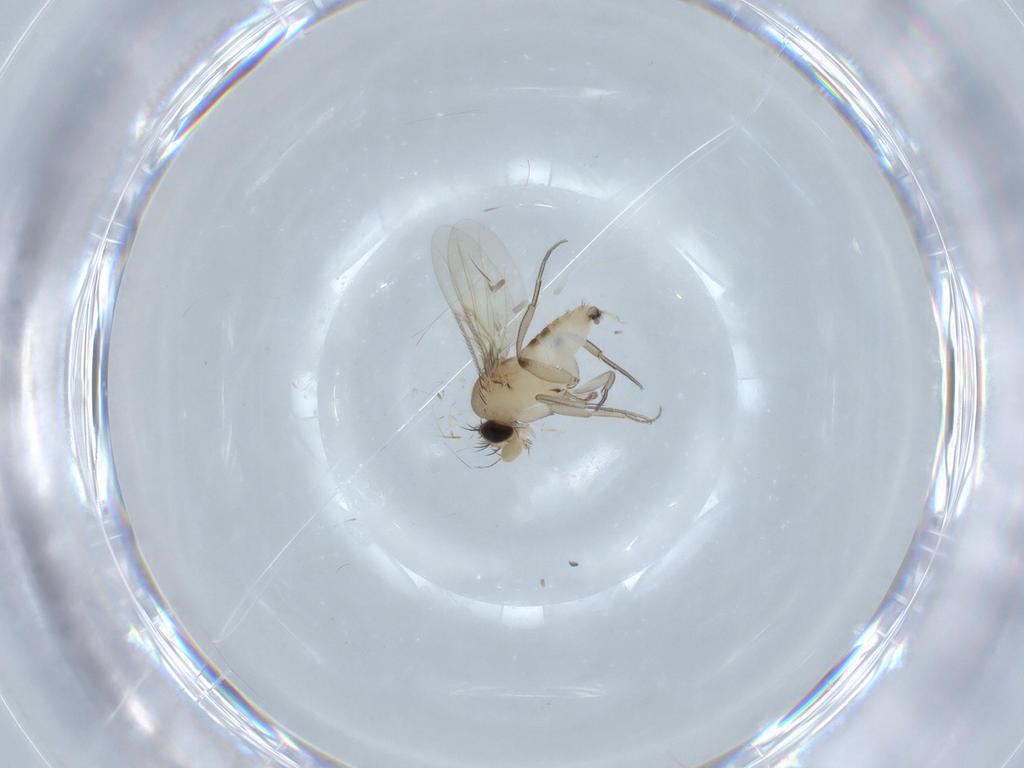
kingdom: Animalia
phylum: Arthropoda
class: Insecta
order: Diptera
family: Phoridae
